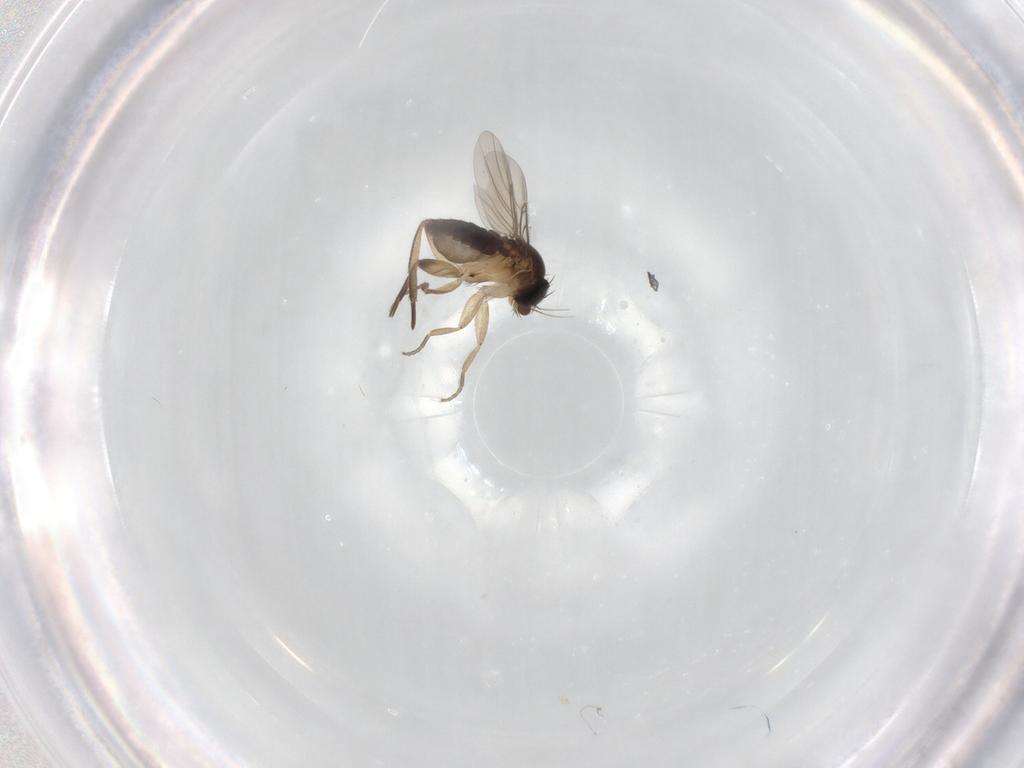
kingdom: Animalia
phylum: Arthropoda
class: Insecta
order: Diptera
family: Phoridae
